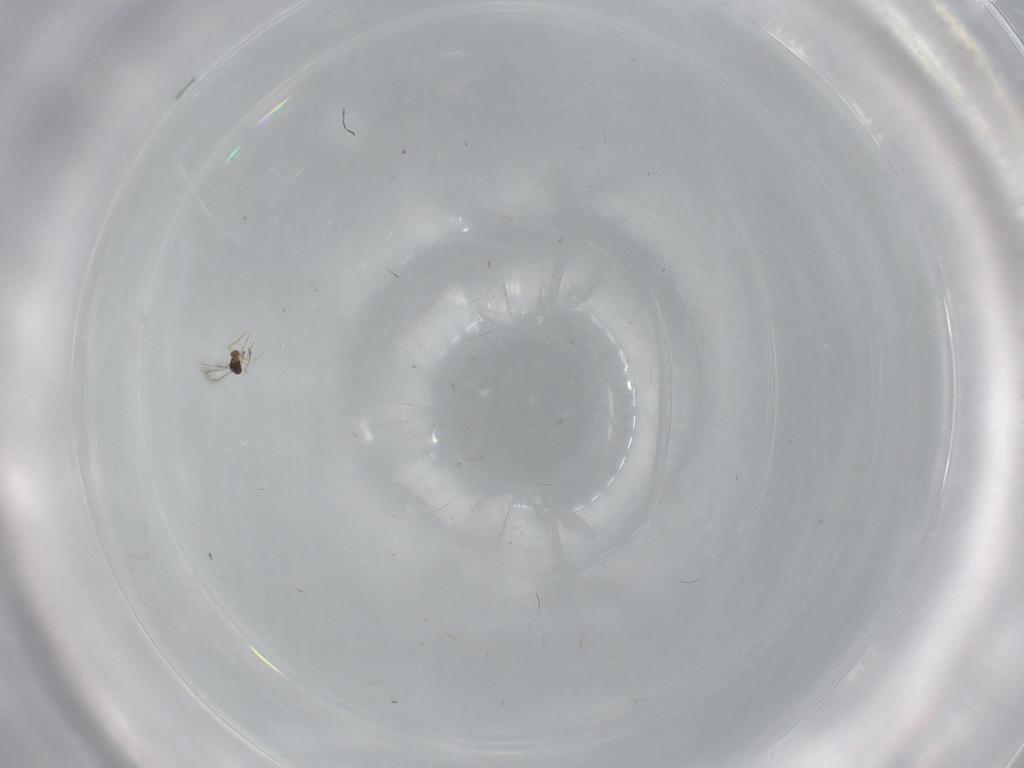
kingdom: Animalia
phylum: Arthropoda
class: Insecta
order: Hymenoptera
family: Mymaridae
